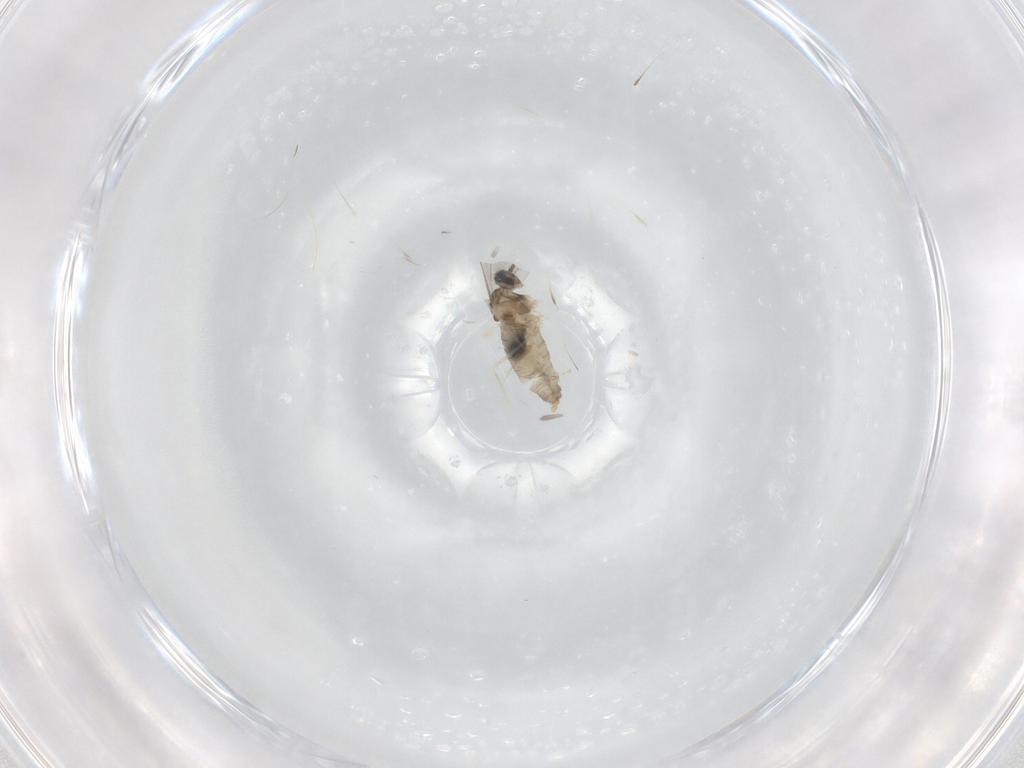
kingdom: Animalia
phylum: Arthropoda
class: Insecta
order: Diptera
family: Cecidomyiidae
